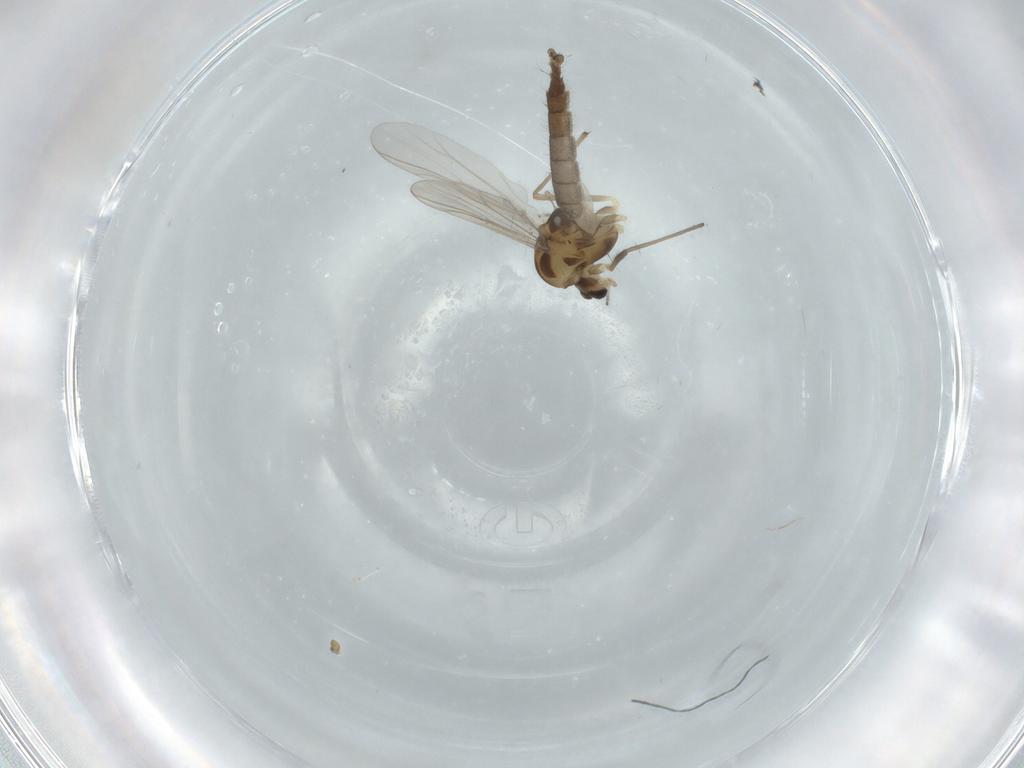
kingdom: Animalia
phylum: Arthropoda
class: Insecta
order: Diptera
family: Chironomidae
